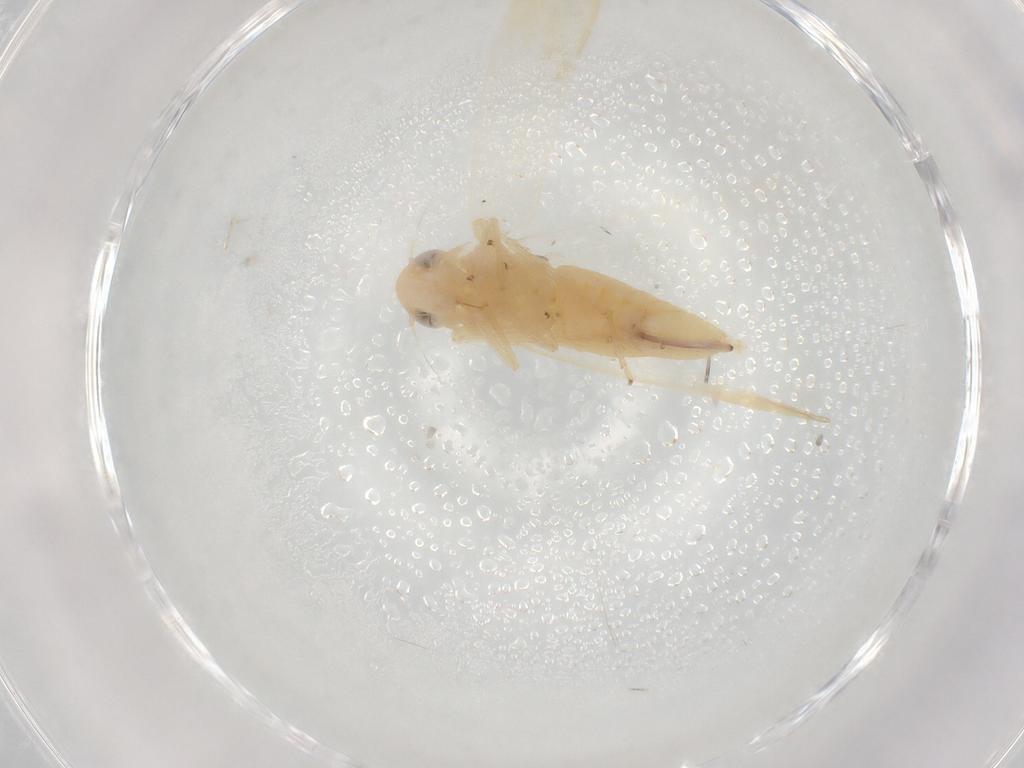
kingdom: Animalia
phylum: Arthropoda
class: Insecta
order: Hemiptera
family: Cicadellidae
